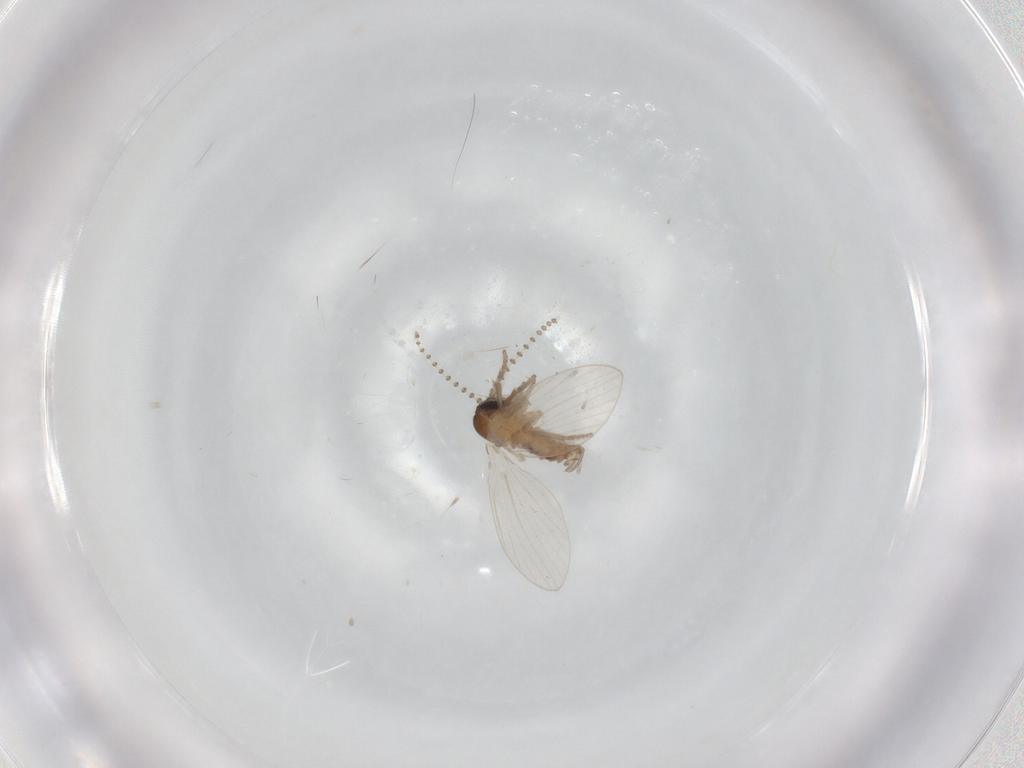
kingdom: Animalia
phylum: Arthropoda
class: Insecta
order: Diptera
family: Psychodidae
